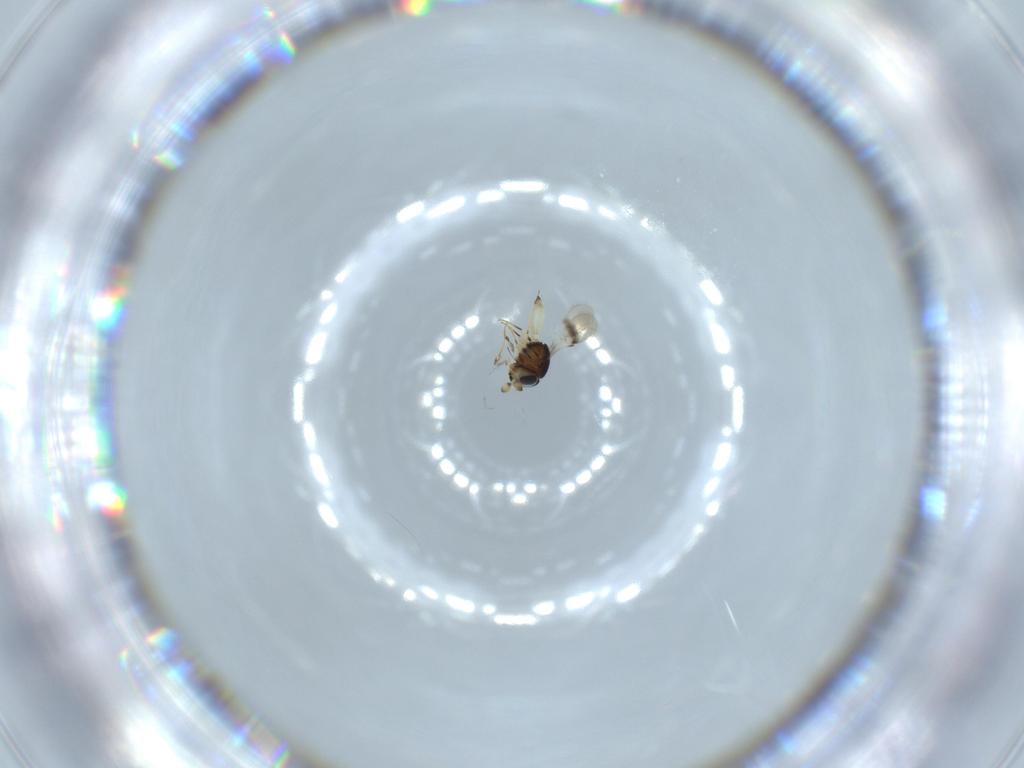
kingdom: Animalia
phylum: Arthropoda
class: Insecta
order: Hymenoptera
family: Scelionidae
